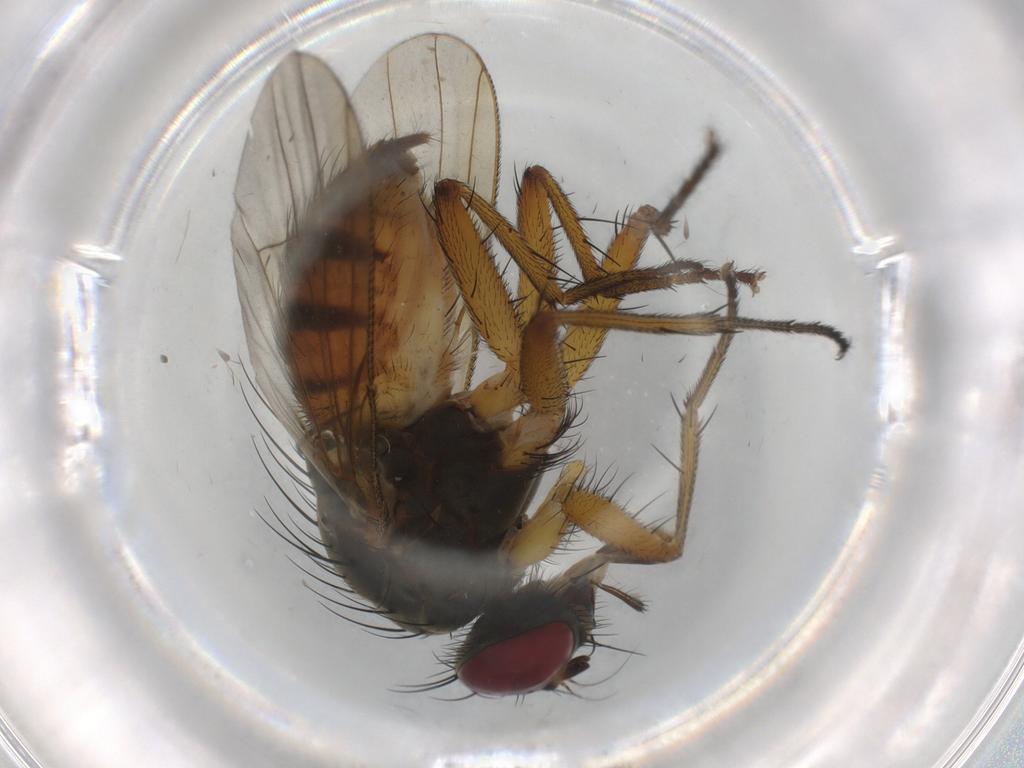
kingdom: Animalia
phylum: Arthropoda
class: Insecta
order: Diptera
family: Muscidae
